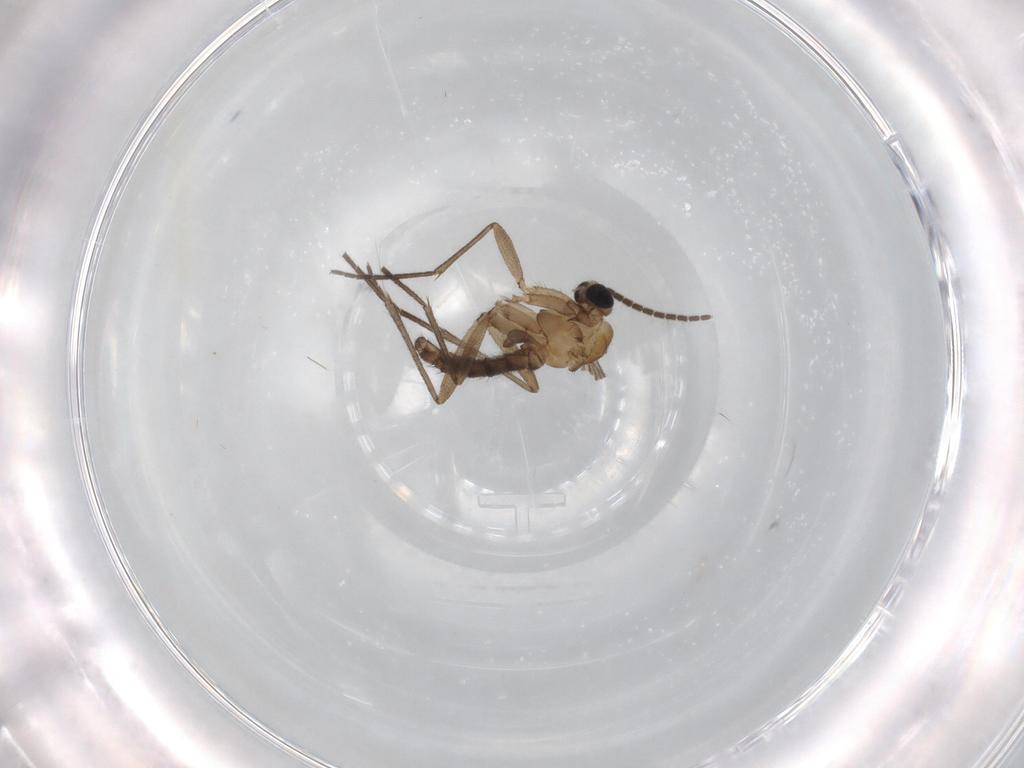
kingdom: Animalia
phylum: Arthropoda
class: Insecta
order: Diptera
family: Sciaridae
